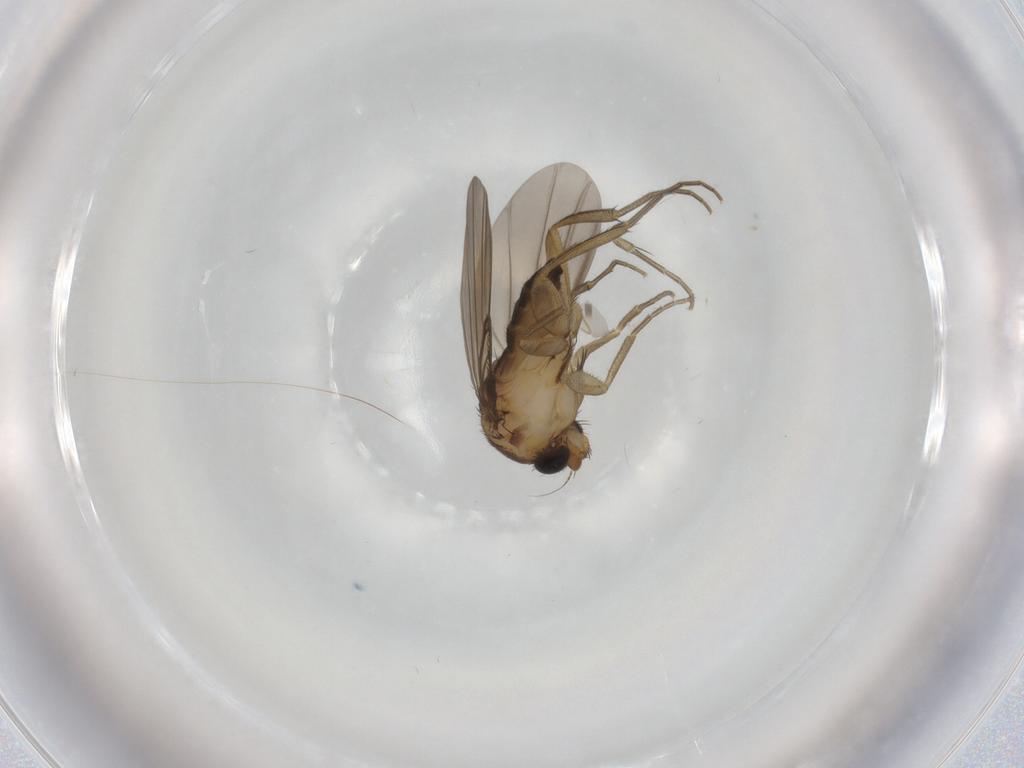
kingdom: Animalia
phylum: Arthropoda
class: Insecta
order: Diptera
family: Phoridae
